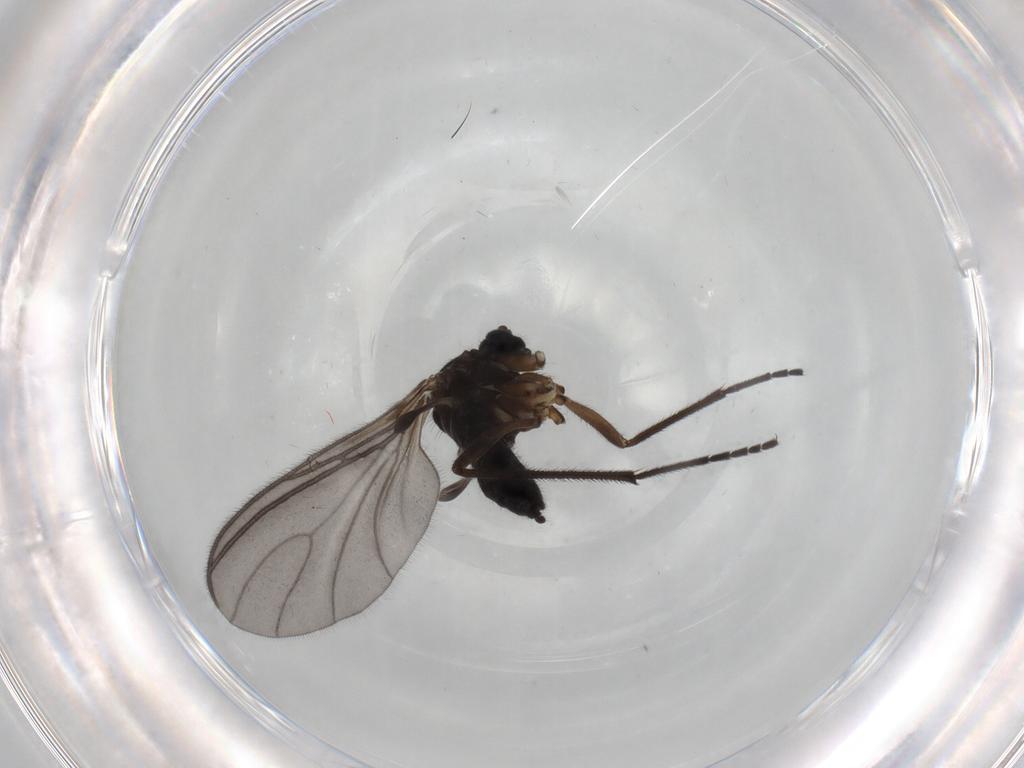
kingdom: Animalia
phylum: Arthropoda
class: Insecta
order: Diptera
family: Sciaridae
